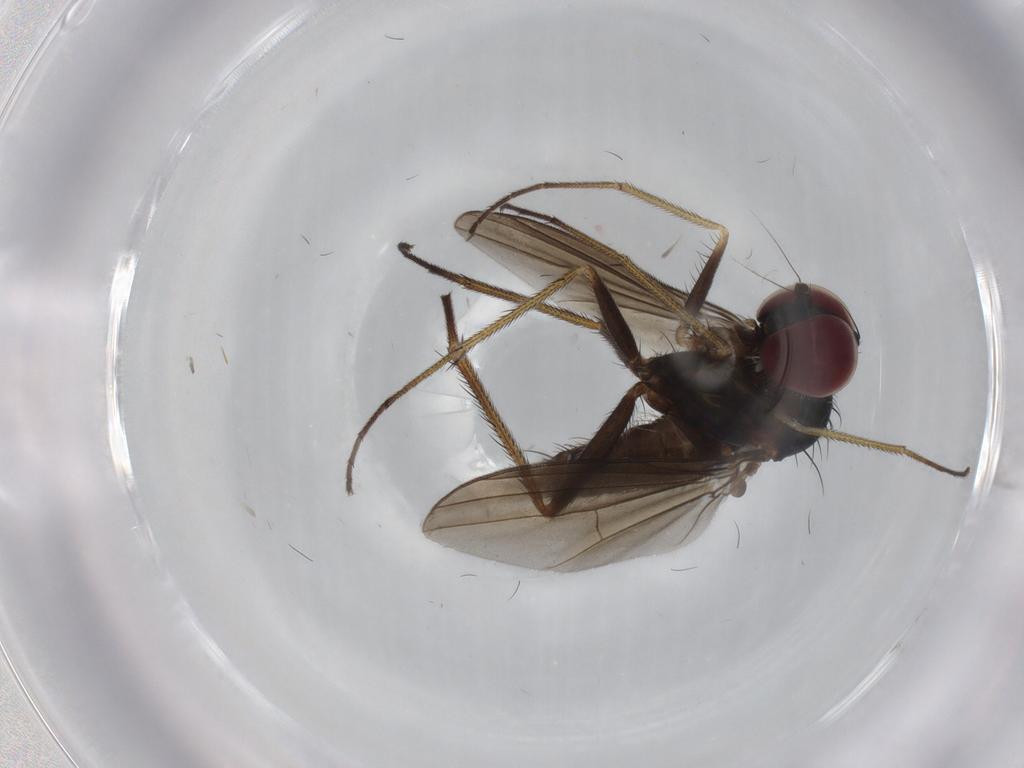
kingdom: Animalia
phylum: Arthropoda
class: Insecta
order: Diptera
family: Dolichopodidae
